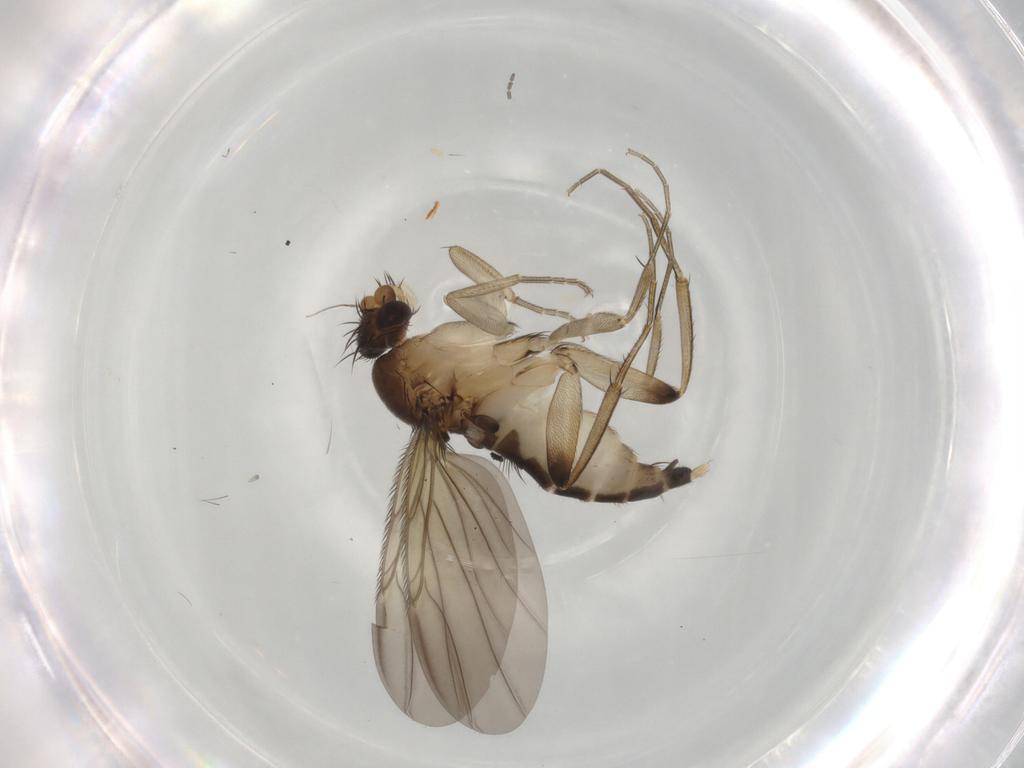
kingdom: Animalia
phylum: Arthropoda
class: Insecta
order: Diptera
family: Phoridae
